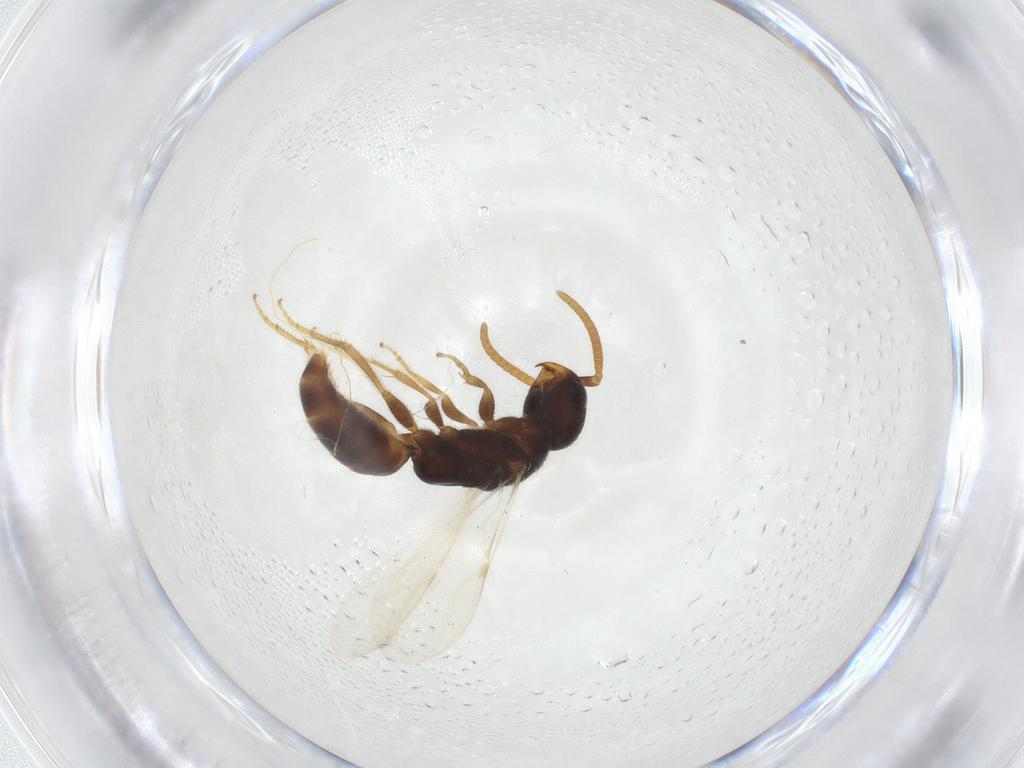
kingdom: Animalia
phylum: Arthropoda
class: Insecta
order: Hymenoptera
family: Bethylidae
